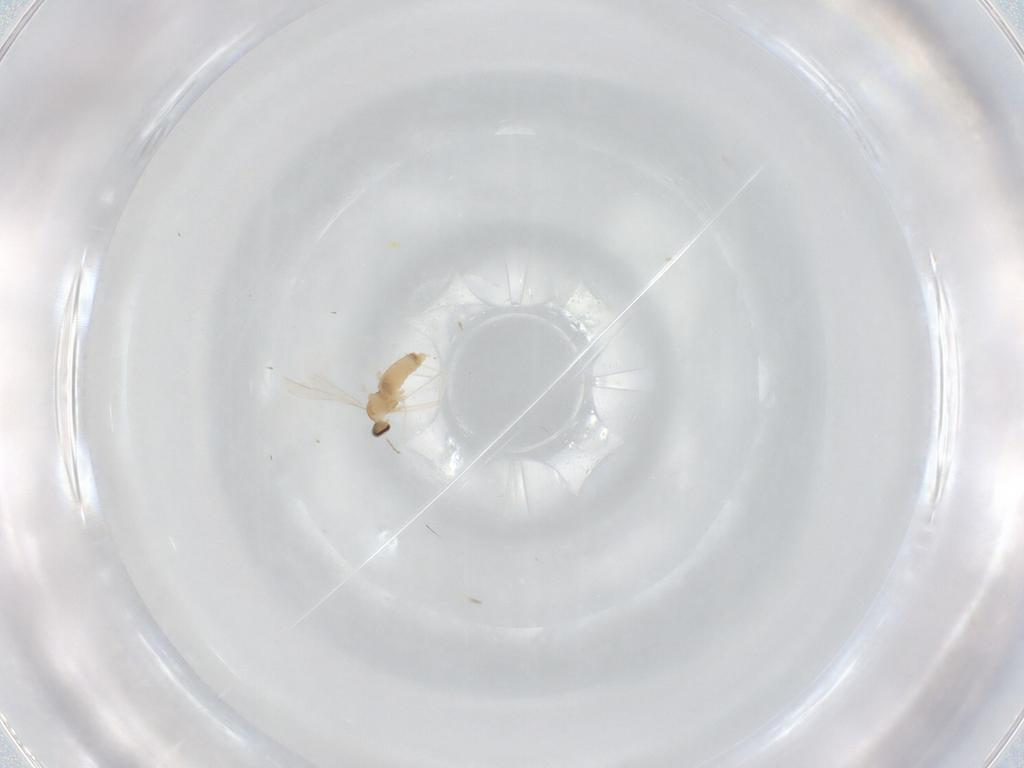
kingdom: Animalia
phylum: Arthropoda
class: Insecta
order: Diptera
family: Cecidomyiidae
